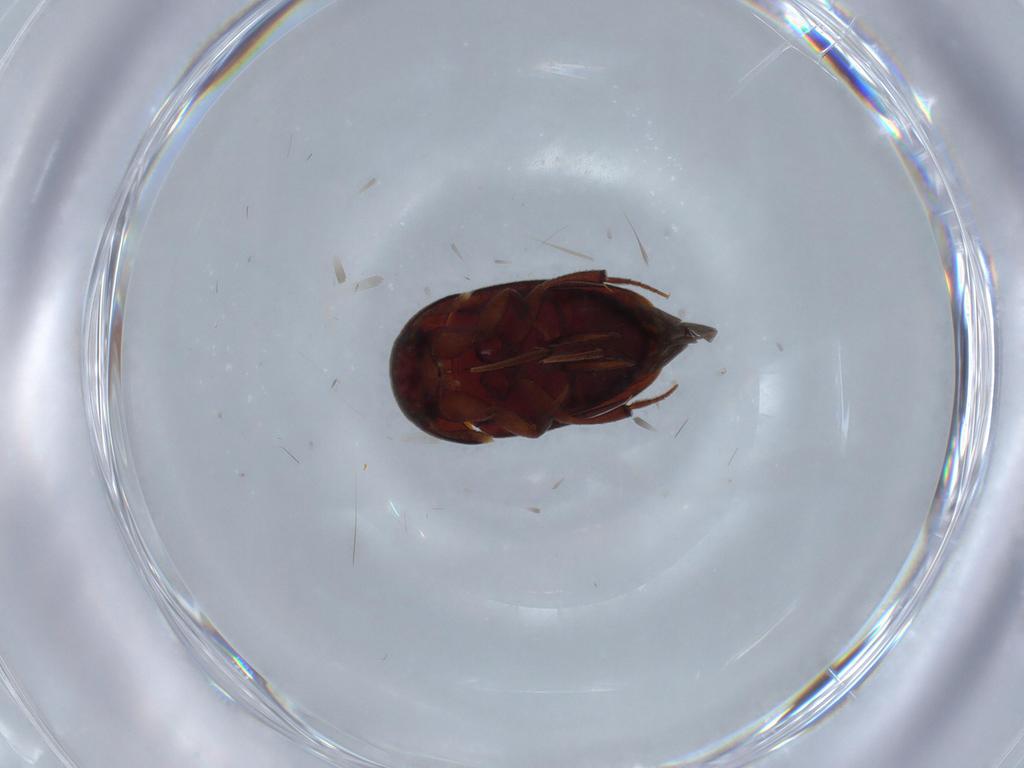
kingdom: Animalia
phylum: Arthropoda
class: Insecta
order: Coleoptera
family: Leiodidae
